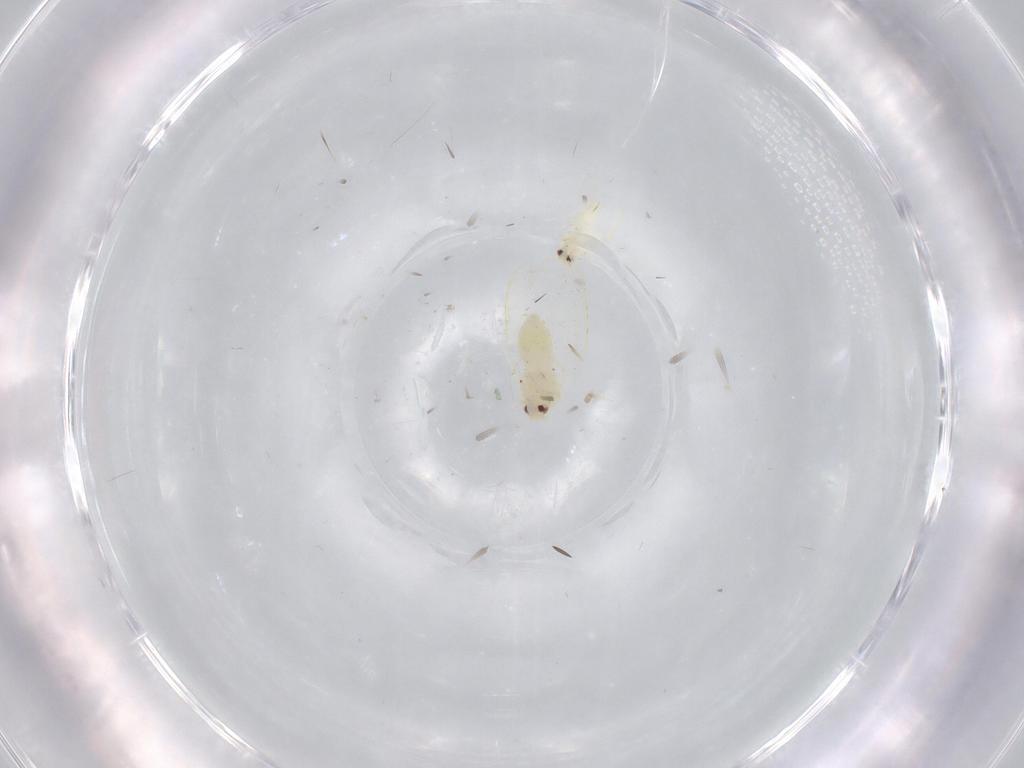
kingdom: Animalia
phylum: Arthropoda
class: Insecta
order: Hemiptera
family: Aleyrodidae
